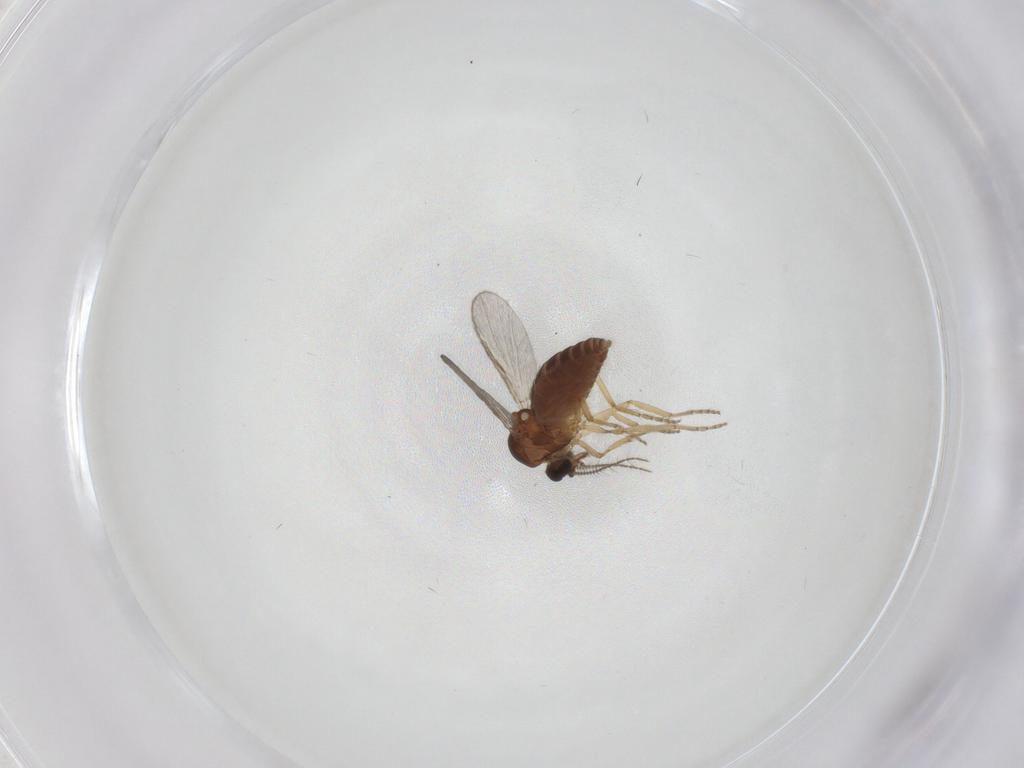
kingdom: Animalia
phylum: Arthropoda
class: Insecta
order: Diptera
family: Ceratopogonidae
